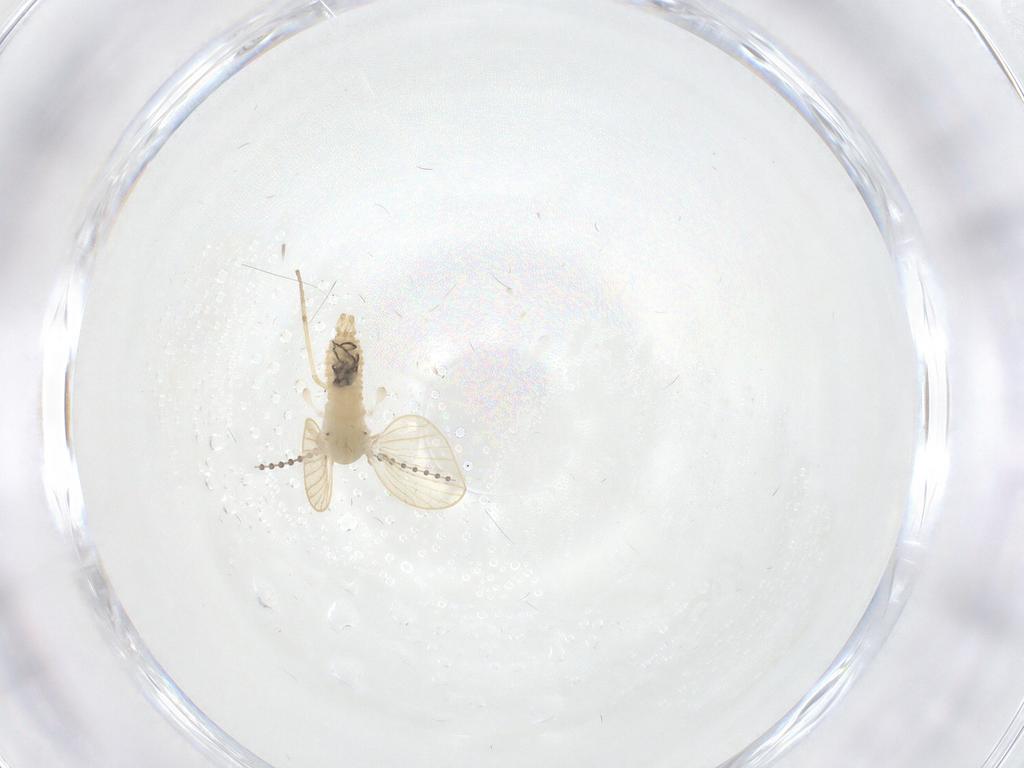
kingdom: Animalia
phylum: Arthropoda
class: Insecta
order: Diptera
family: Psychodidae
